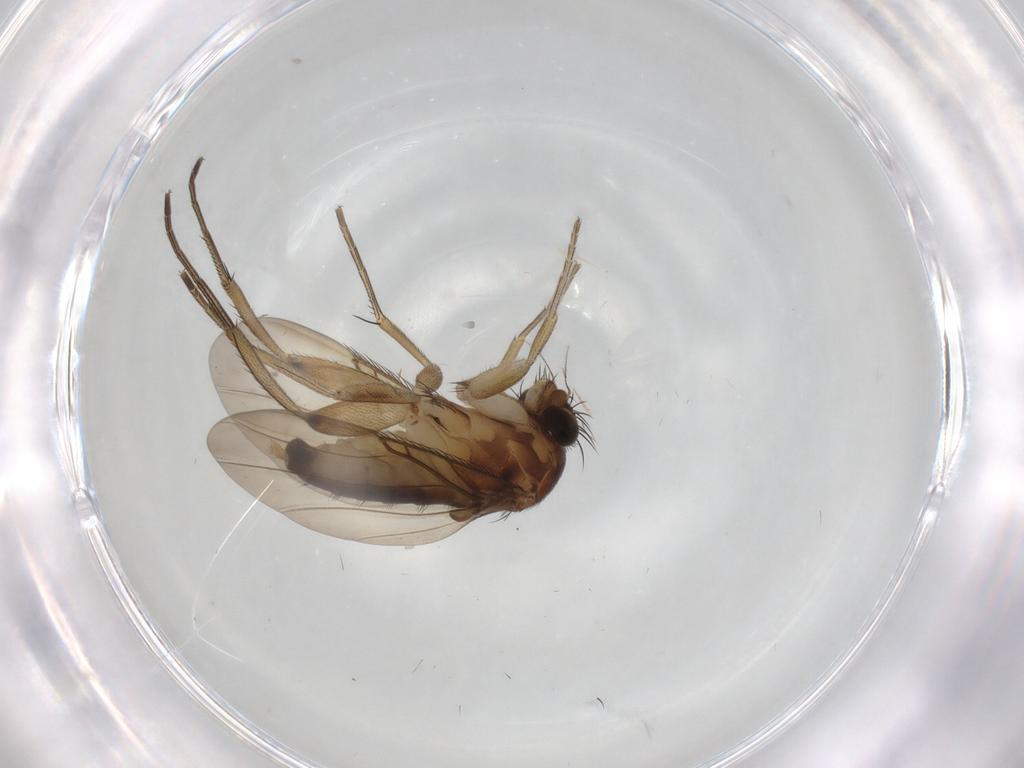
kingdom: Animalia
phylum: Arthropoda
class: Insecta
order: Diptera
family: Phoridae
